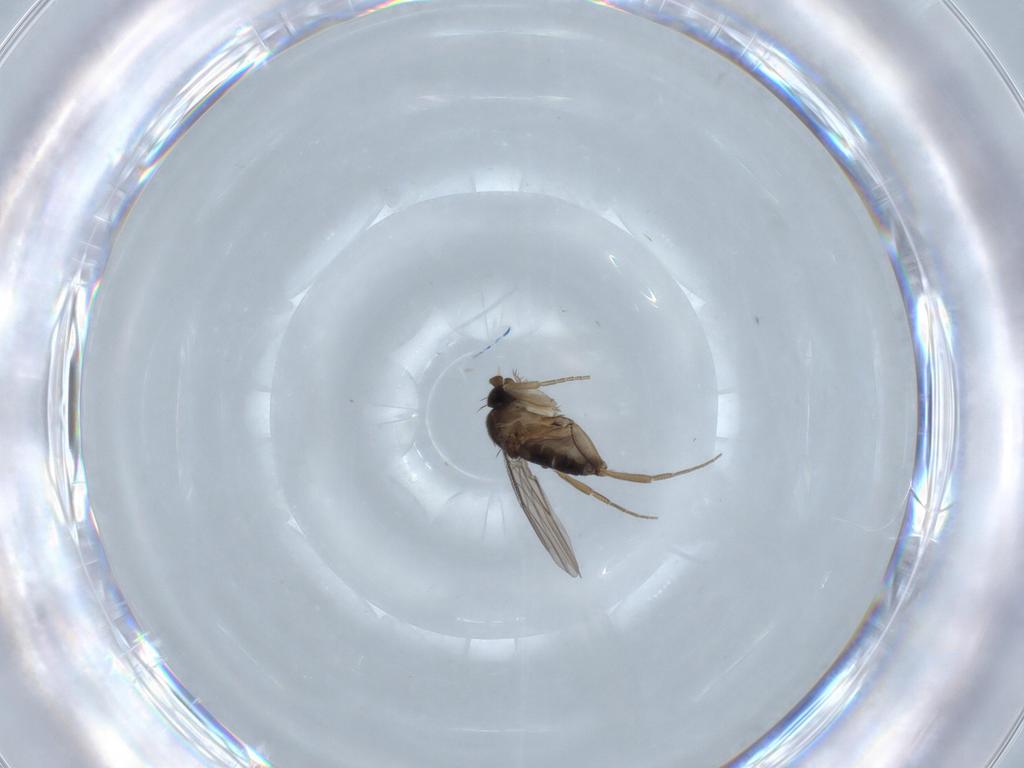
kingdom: Animalia
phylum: Arthropoda
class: Insecta
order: Diptera
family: Phoridae
